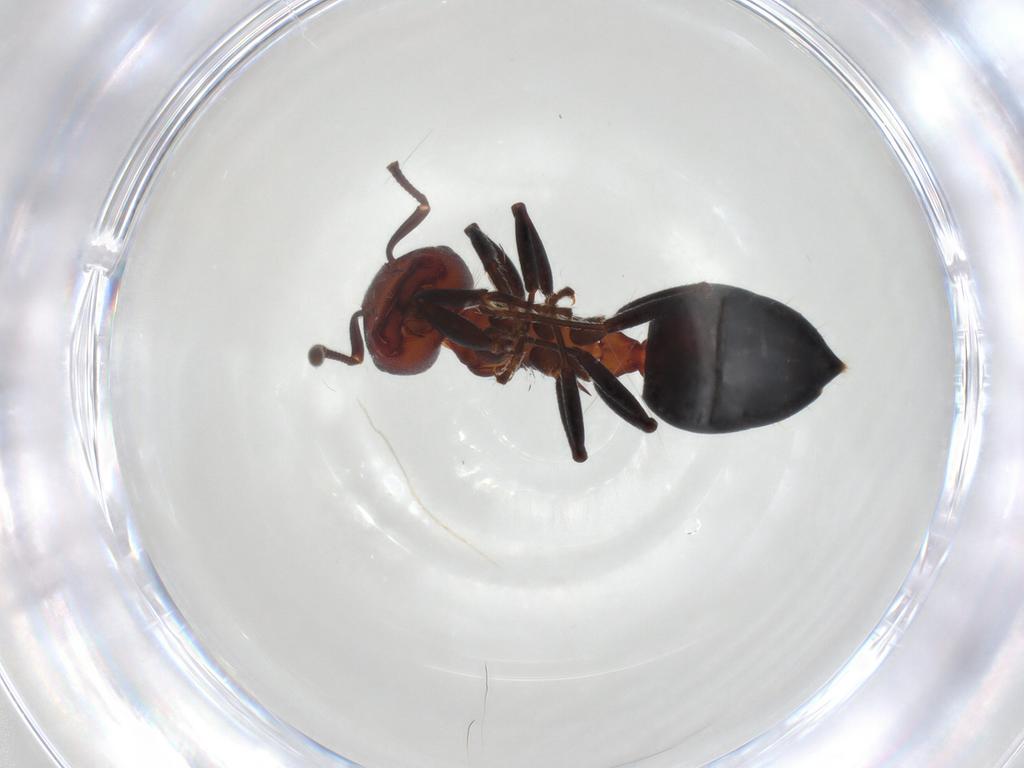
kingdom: Animalia
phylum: Arthropoda
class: Insecta
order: Hymenoptera
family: Formicidae
